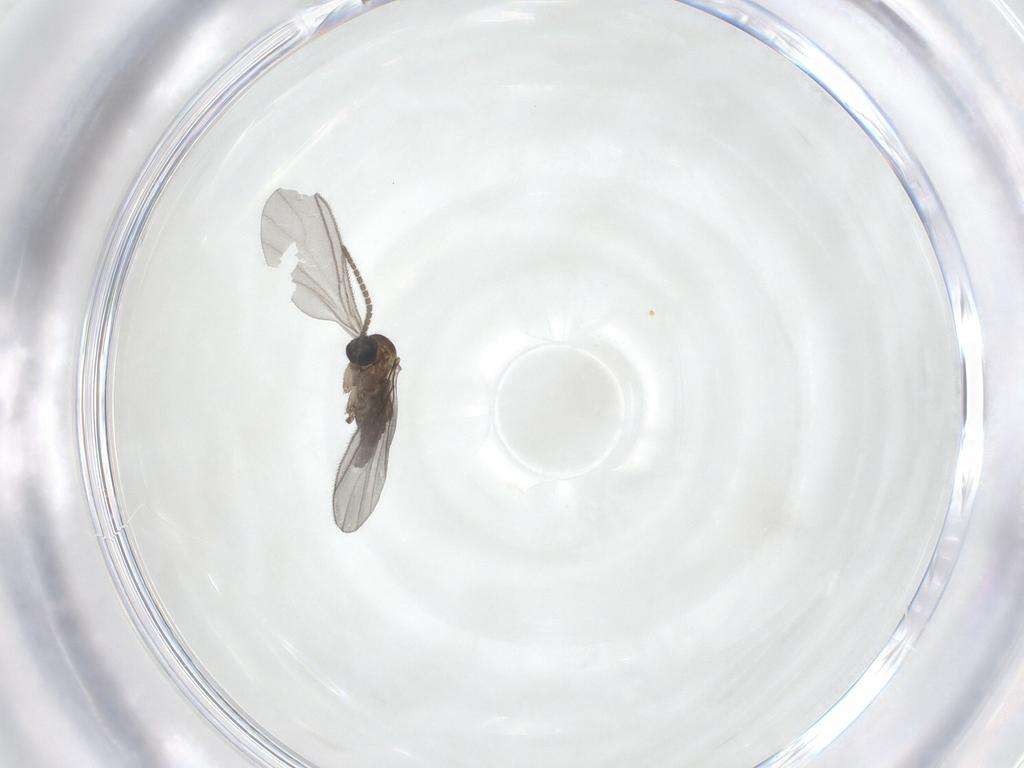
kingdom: Animalia
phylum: Arthropoda
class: Insecta
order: Diptera
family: Sciaridae
